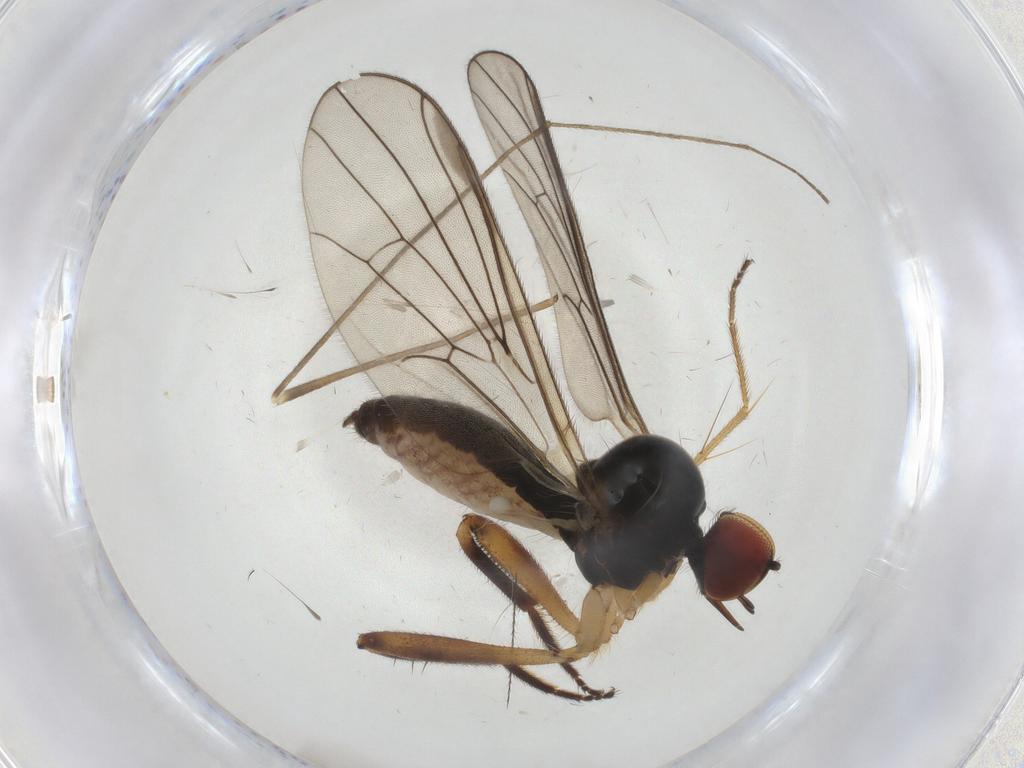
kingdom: Animalia
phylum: Arthropoda
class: Insecta
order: Diptera
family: Hybotidae
